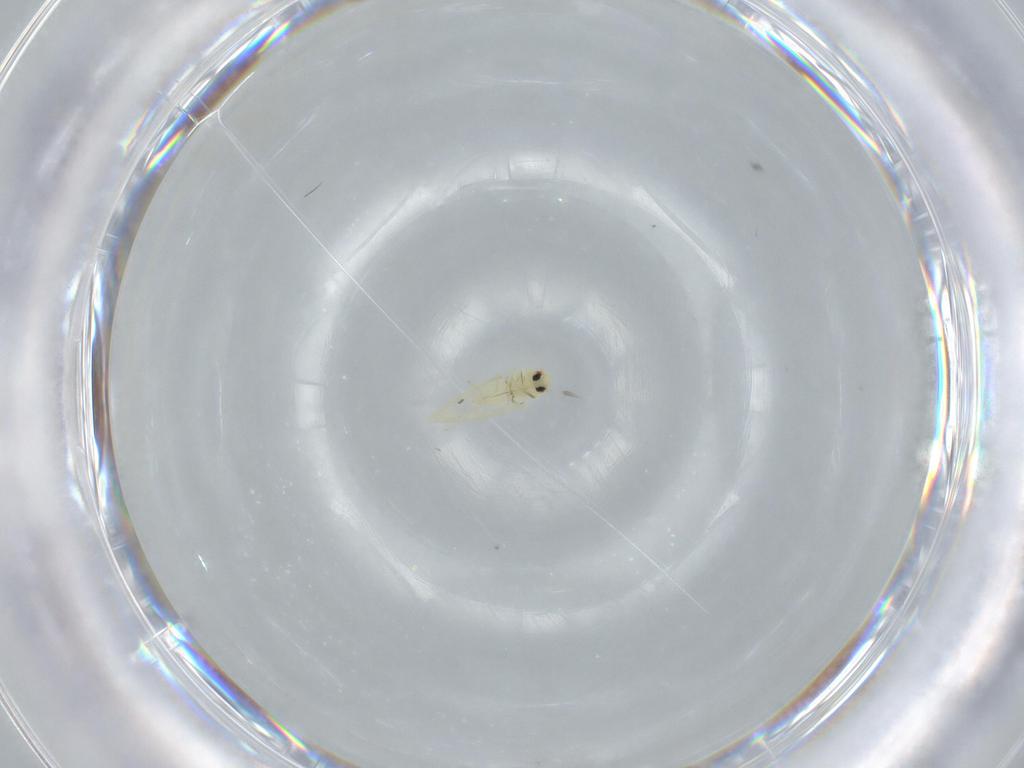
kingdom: Animalia
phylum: Arthropoda
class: Insecta
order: Hemiptera
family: Aleyrodidae
